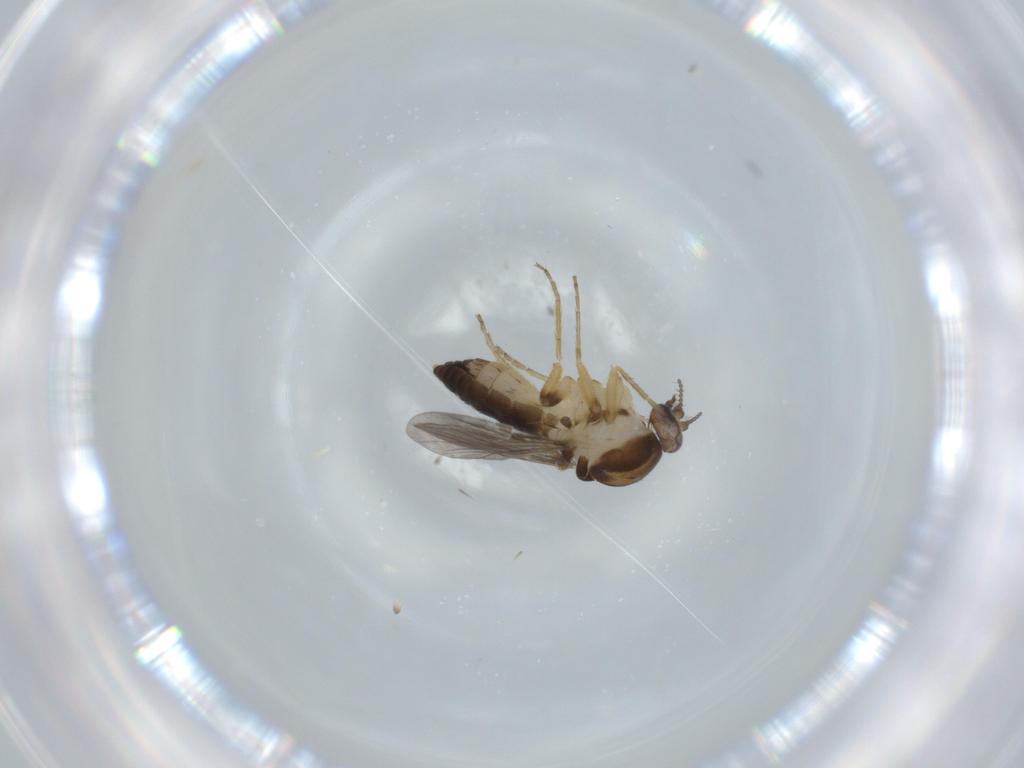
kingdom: Animalia
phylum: Arthropoda
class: Insecta
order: Diptera
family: Ceratopogonidae
